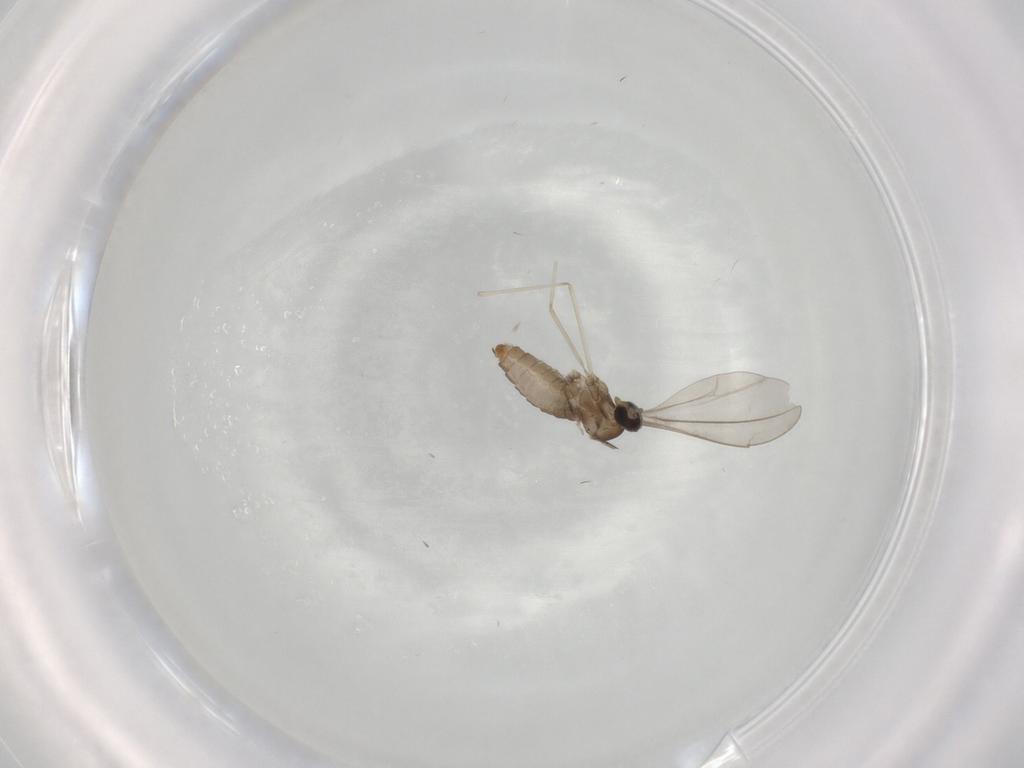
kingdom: Animalia
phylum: Arthropoda
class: Insecta
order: Diptera
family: Cecidomyiidae
